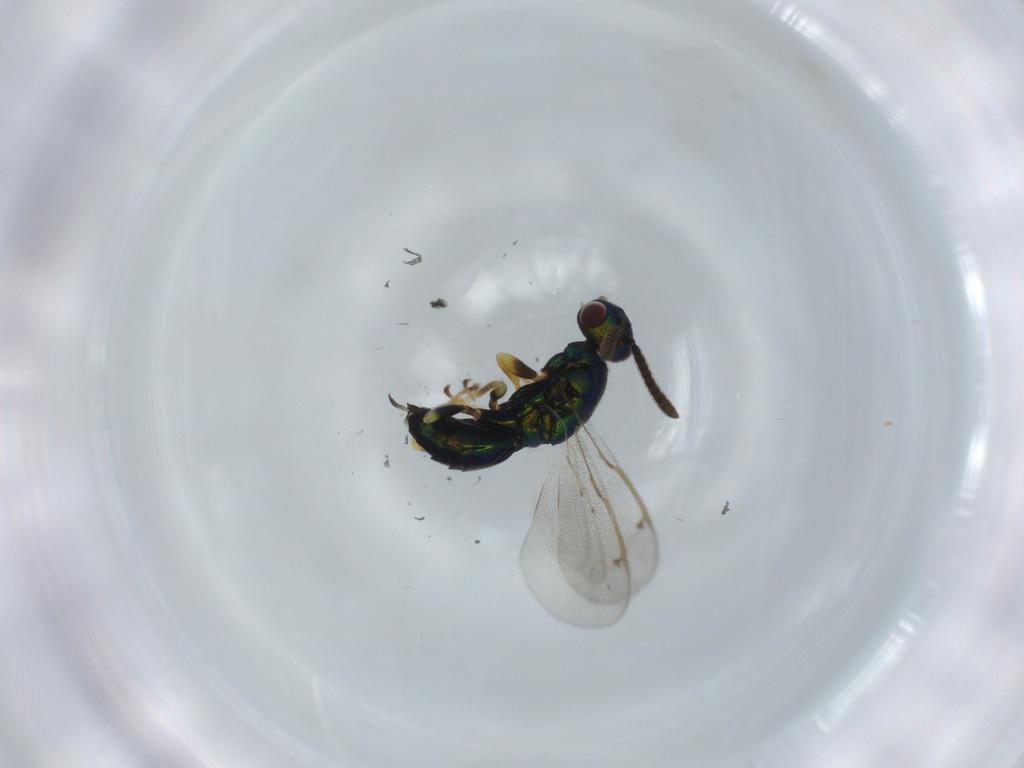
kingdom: Animalia
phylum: Arthropoda
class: Insecta
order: Hymenoptera
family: Torymidae
